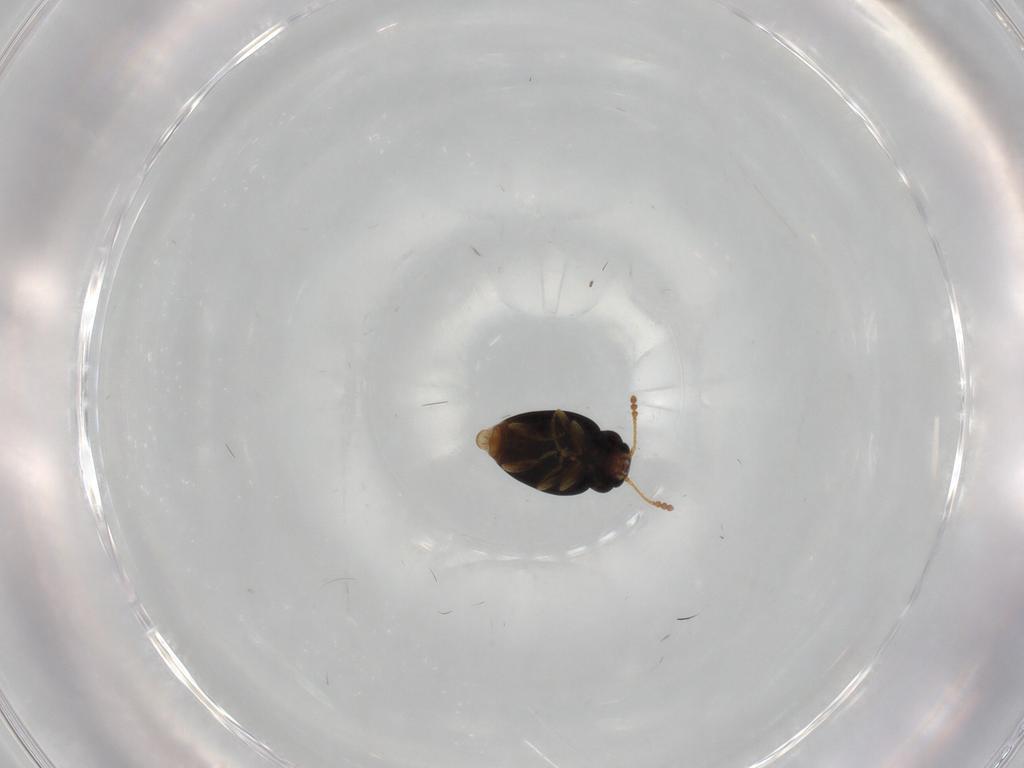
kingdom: Animalia
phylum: Arthropoda
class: Insecta
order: Coleoptera
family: Erotylidae
